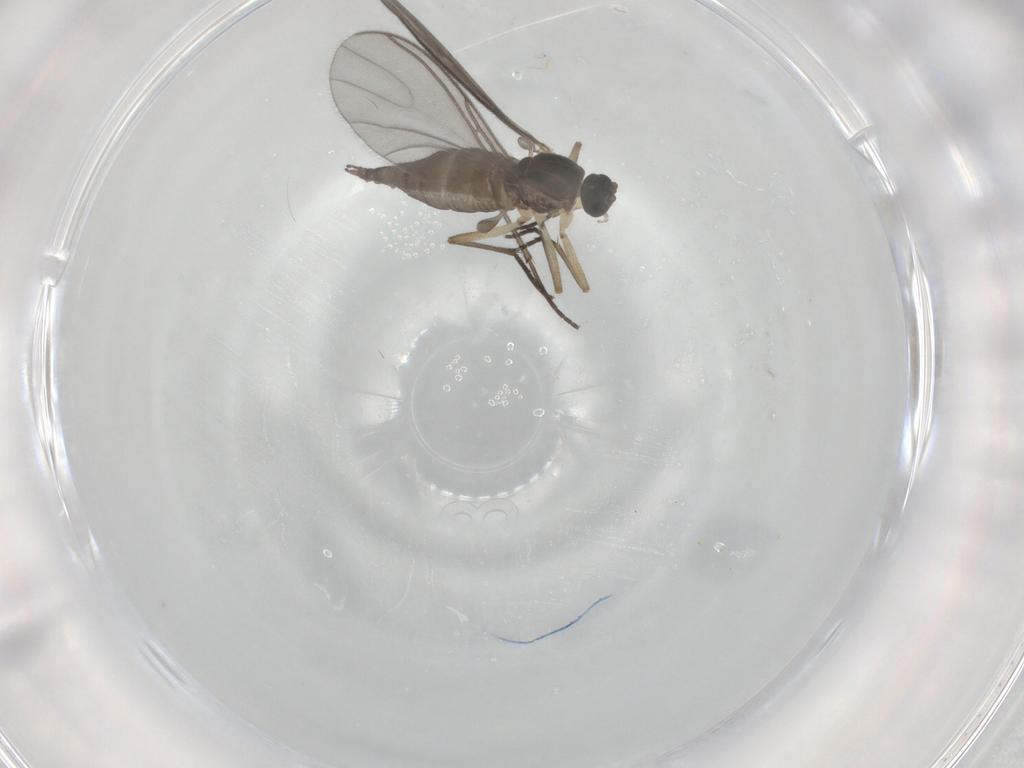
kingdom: Animalia
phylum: Arthropoda
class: Insecta
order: Diptera
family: Sciaridae
